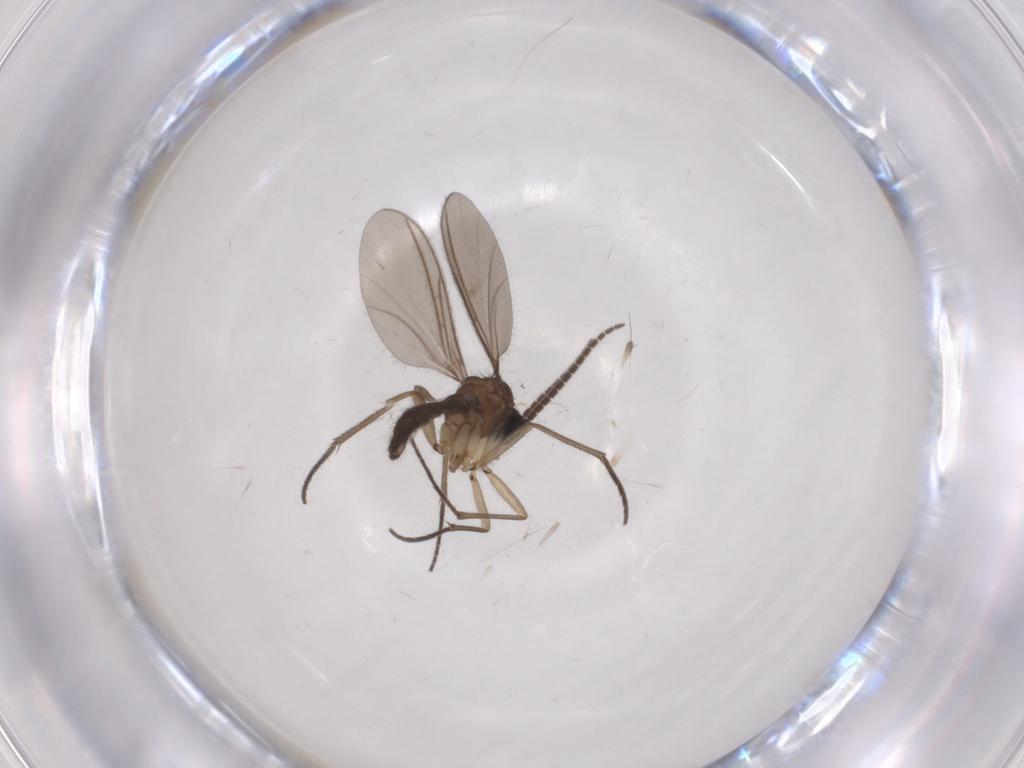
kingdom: Animalia
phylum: Arthropoda
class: Insecta
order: Diptera
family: Sciaridae
